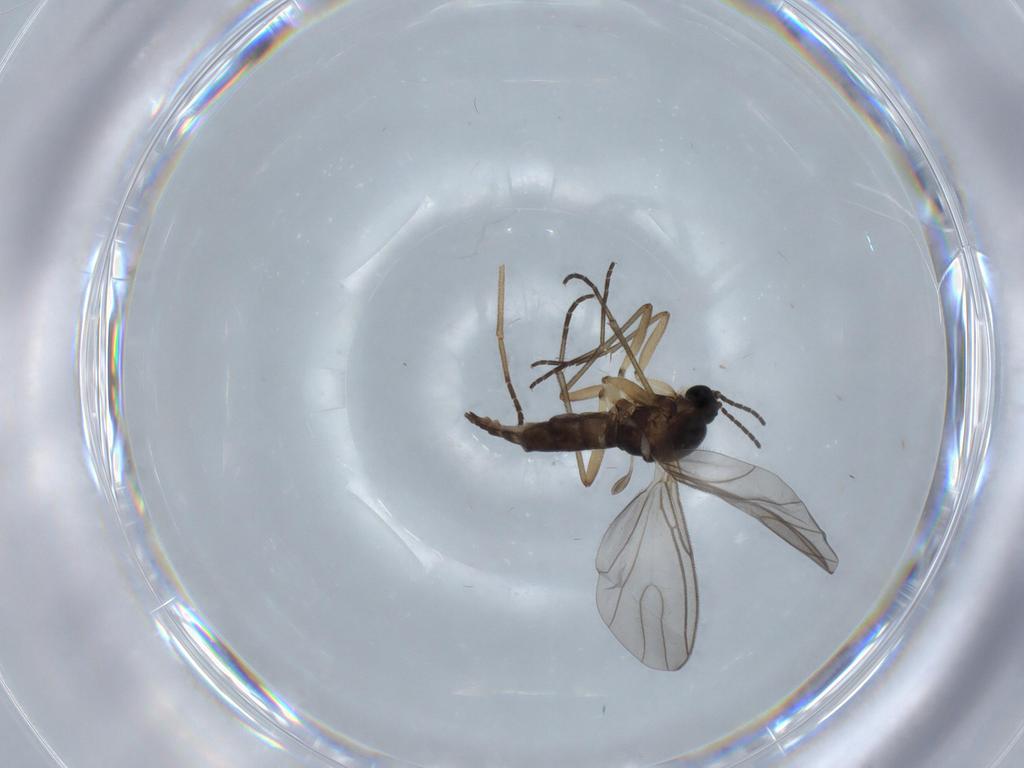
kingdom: Animalia
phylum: Arthropoda
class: Insecta
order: Diptera
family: Sciaridae
